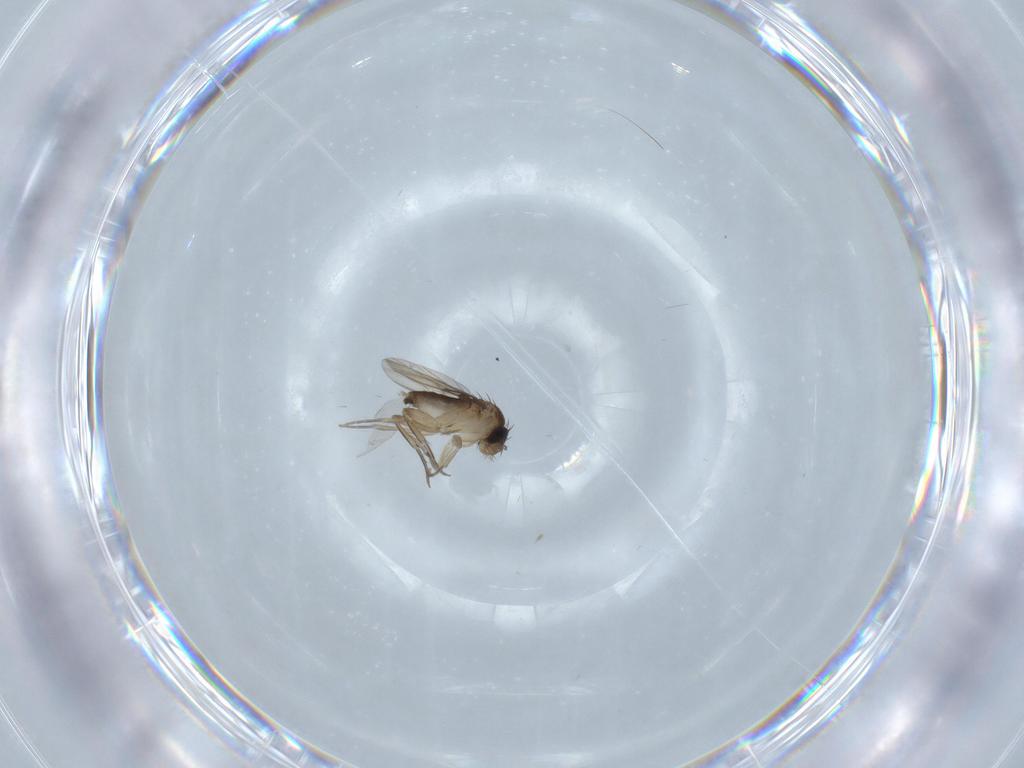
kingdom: Animalia
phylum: Arthropoda
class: Insecta
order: Diptera
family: Phoridae
